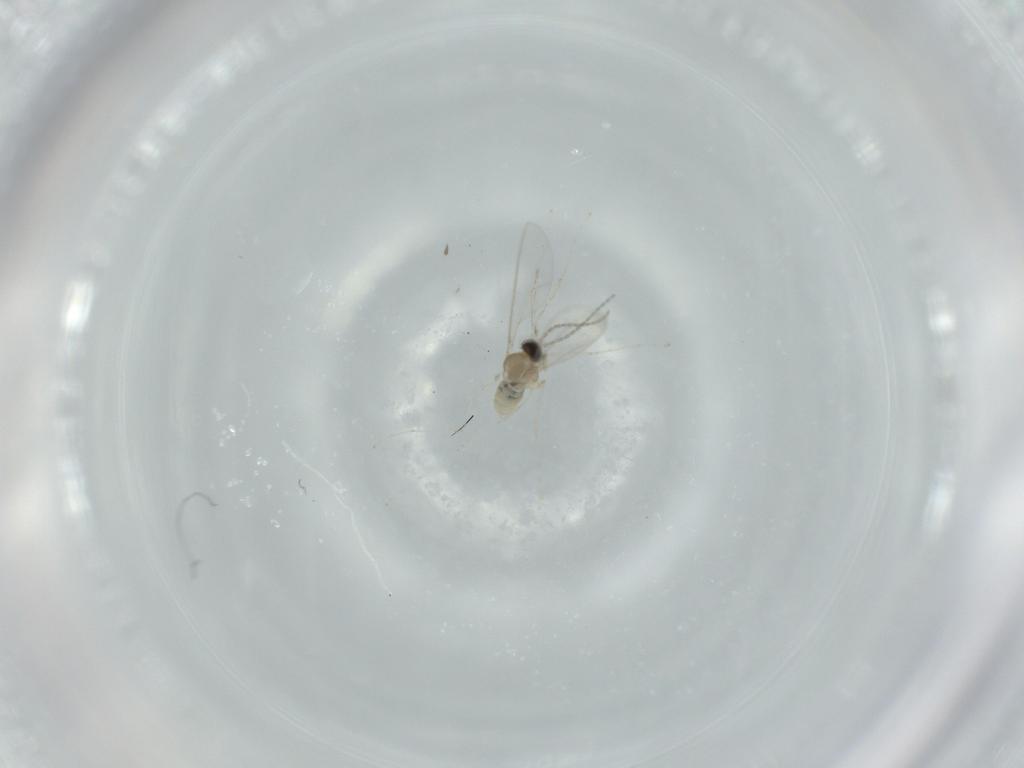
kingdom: Animalia
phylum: Arthropoda
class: Insecta
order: Diptera
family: Cecidomyiidae
